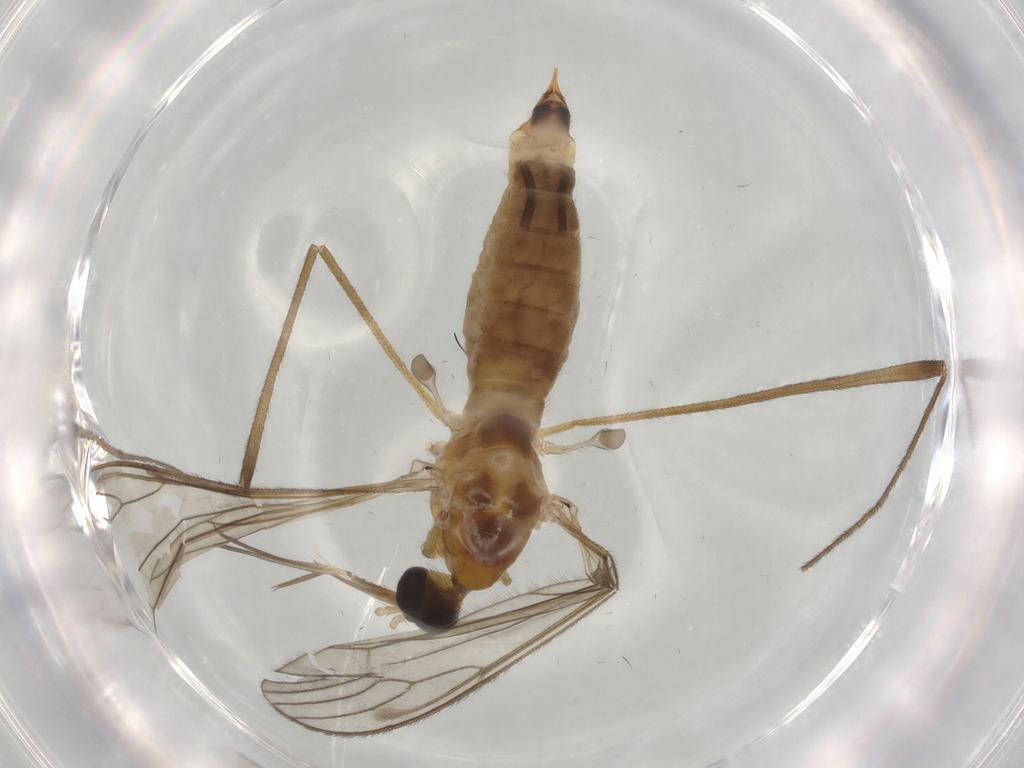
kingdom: Animalia
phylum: Arthropoda
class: Insecta
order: Diptera
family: Limoniidae
